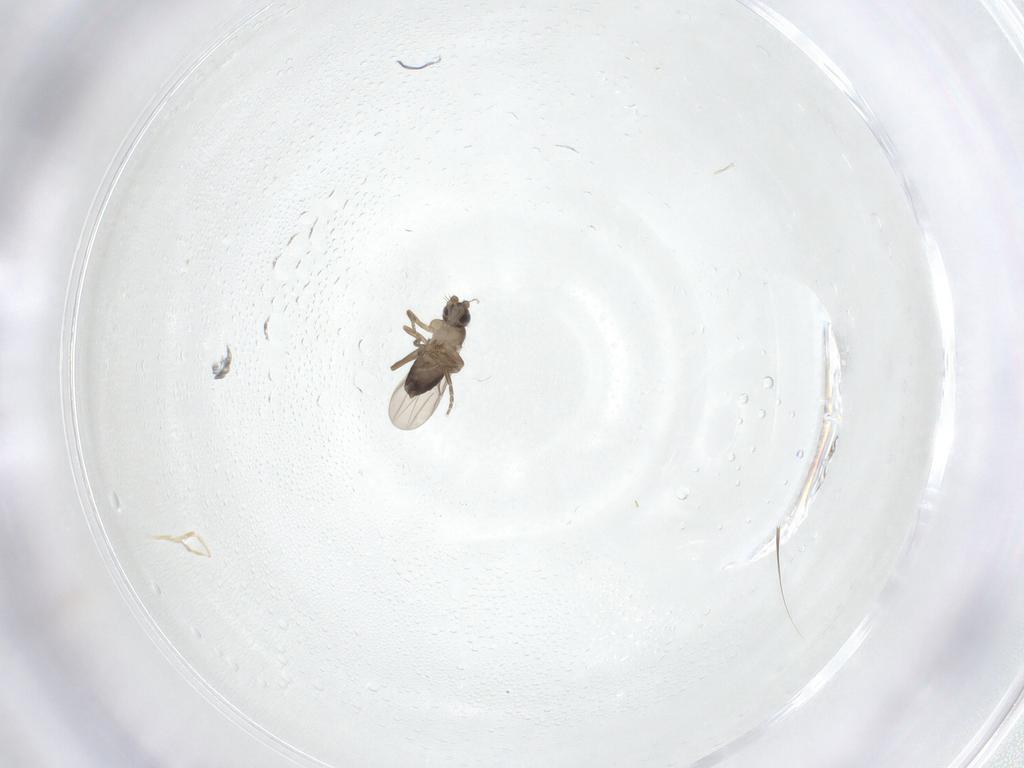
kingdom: Animalia
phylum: Arthropoda
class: Insecta
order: Diptera
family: Phoridae
